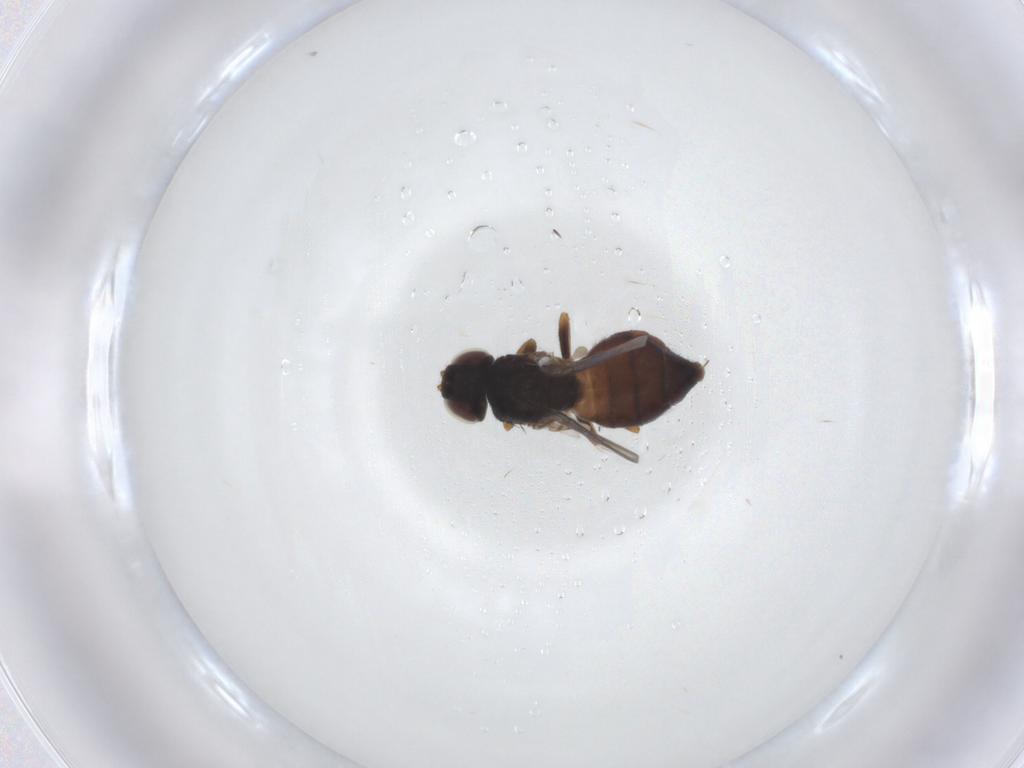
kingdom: Animalia
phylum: Arthropoda
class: Insecta
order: Diptera
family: Chloropidae
